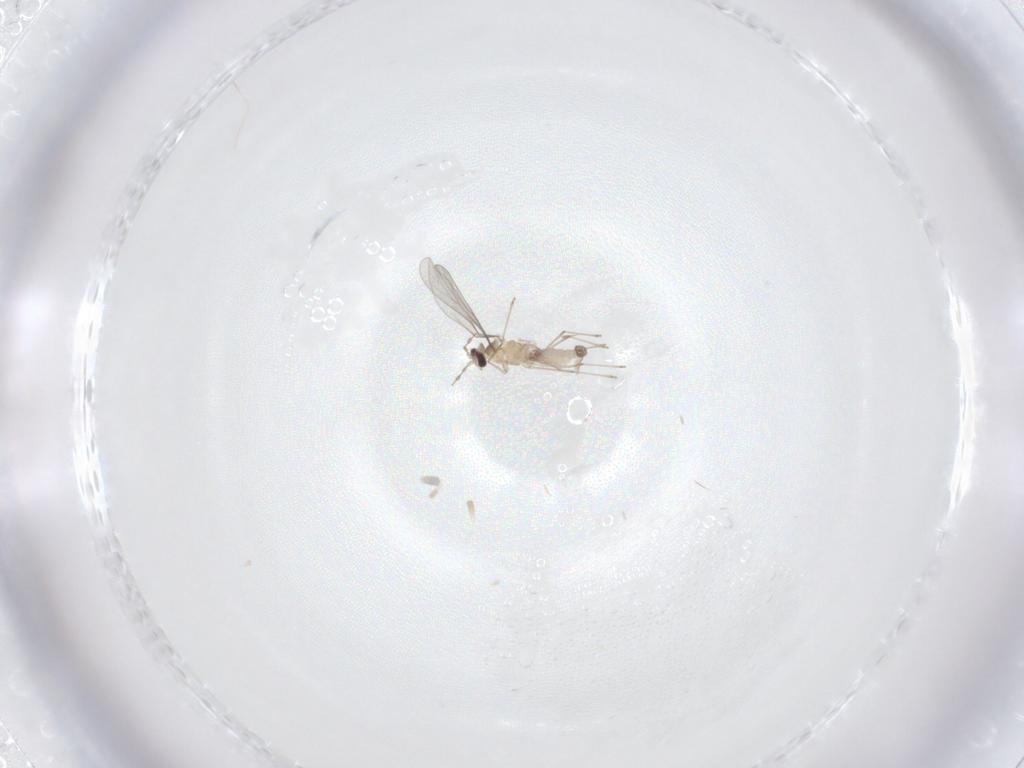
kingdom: Animalia
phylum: Arthropoda
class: Insecta
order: Diptera
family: Cecidomyiidae
